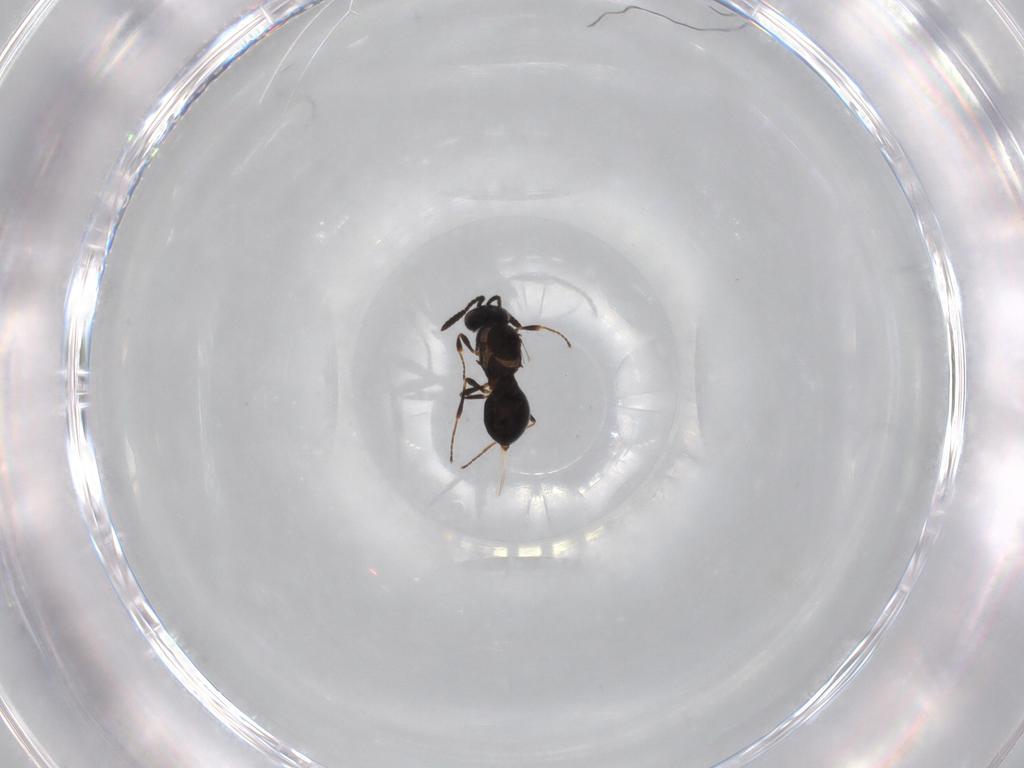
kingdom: Animalia
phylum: Arthropoda
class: Insecta
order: Hymenoptera
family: Scelionidae
